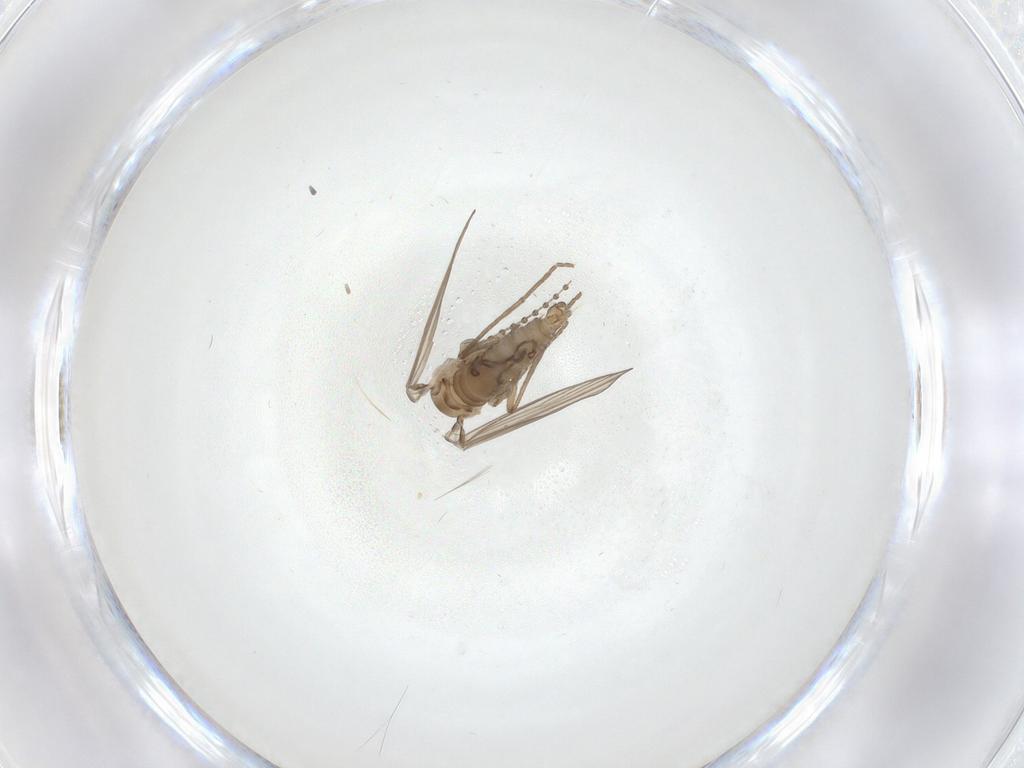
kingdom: Animalia
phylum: Arthropoda
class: Insecta
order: Diptera
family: Psychodidae
